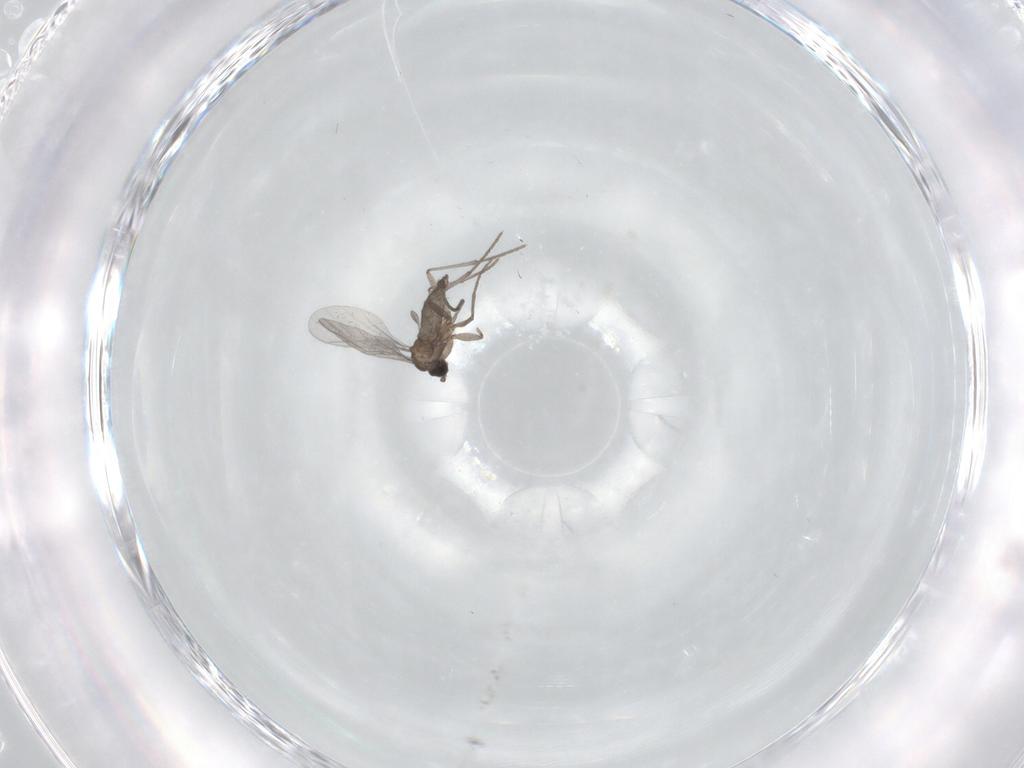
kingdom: Animalia
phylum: Arthropoda
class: Insecta
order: Diptera
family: Sciaridae
